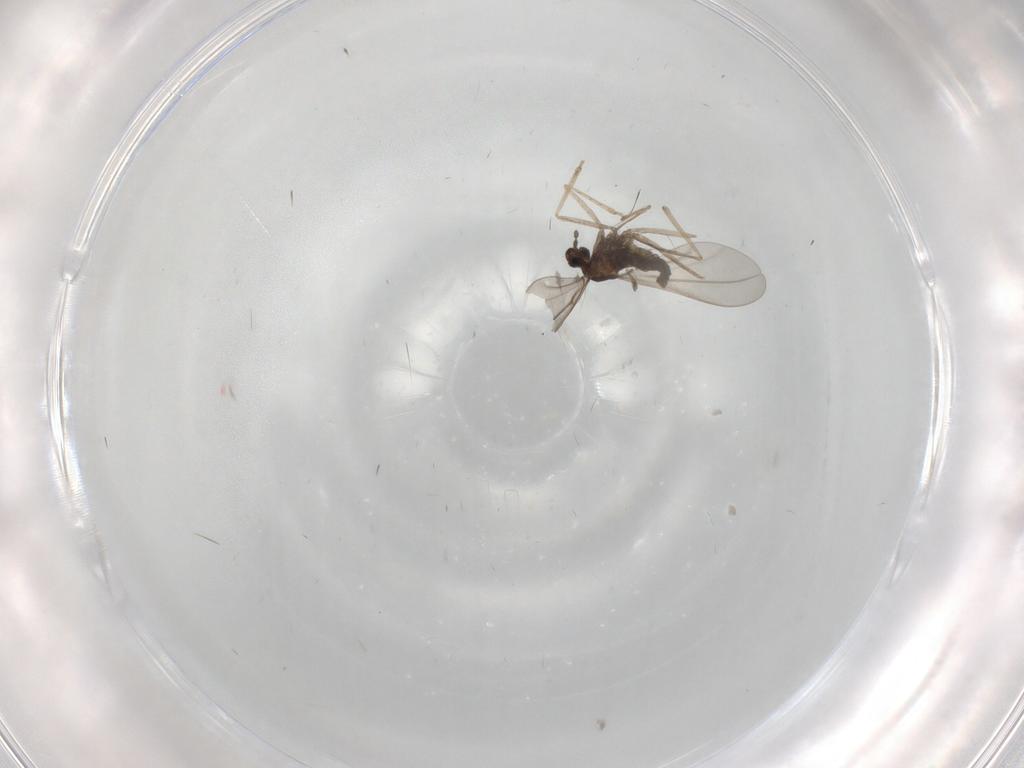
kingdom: Animalia
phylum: Arthropoda
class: Insecta
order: Diptera
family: Cecidomyiidae
